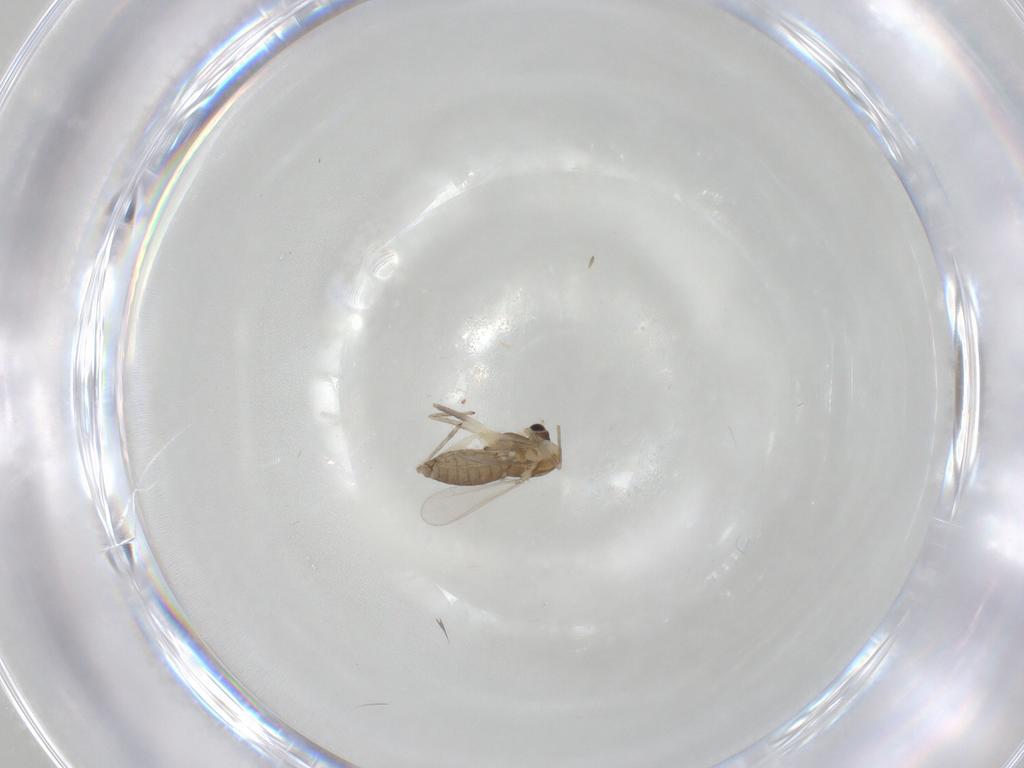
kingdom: Animalia
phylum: Arthropoda
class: Insecta
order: Diptera
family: Chironomidae
